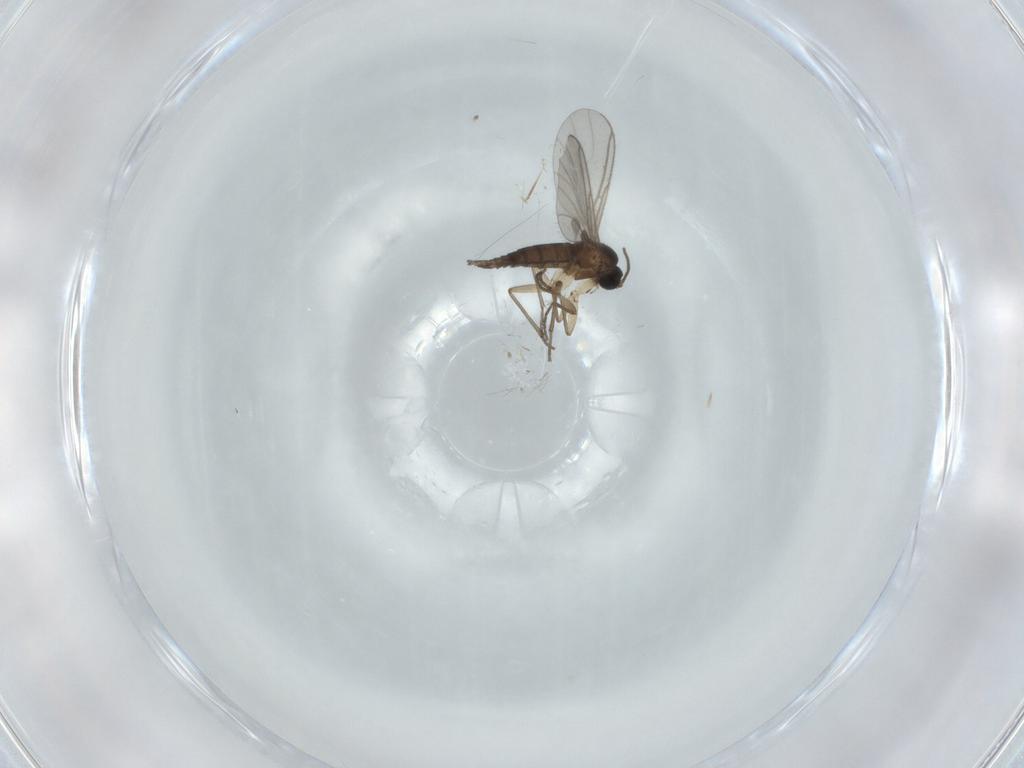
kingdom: Animalia
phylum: Arthropoda
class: Insecta
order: Diptera
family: Sciaridae
